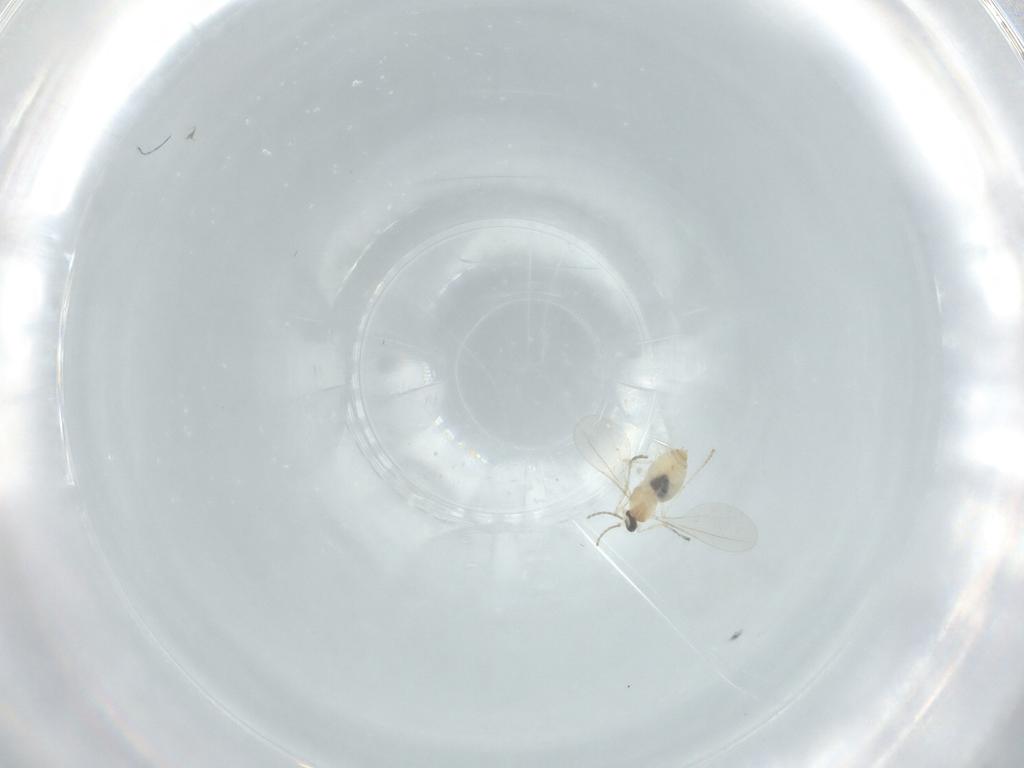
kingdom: Animalia
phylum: Arthropoda
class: Insecta
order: Diptera
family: Cecidomyiidae
